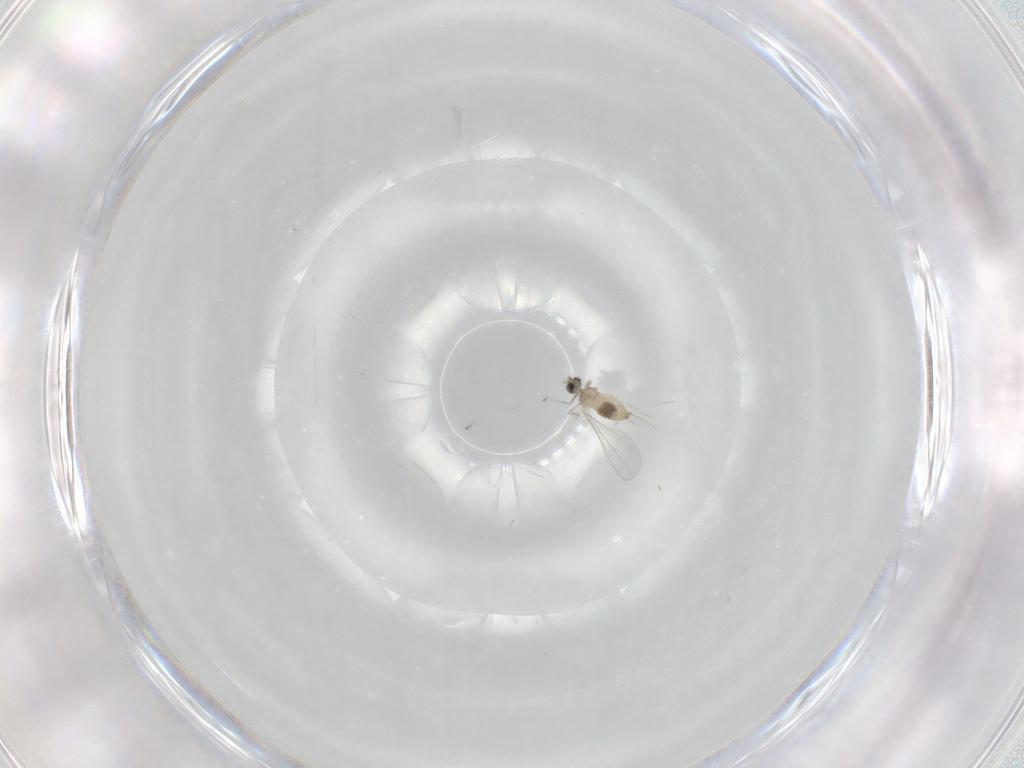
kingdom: Animalia
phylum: Arthropoda
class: Insecta
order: Diptera
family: Cecidomyiidae
